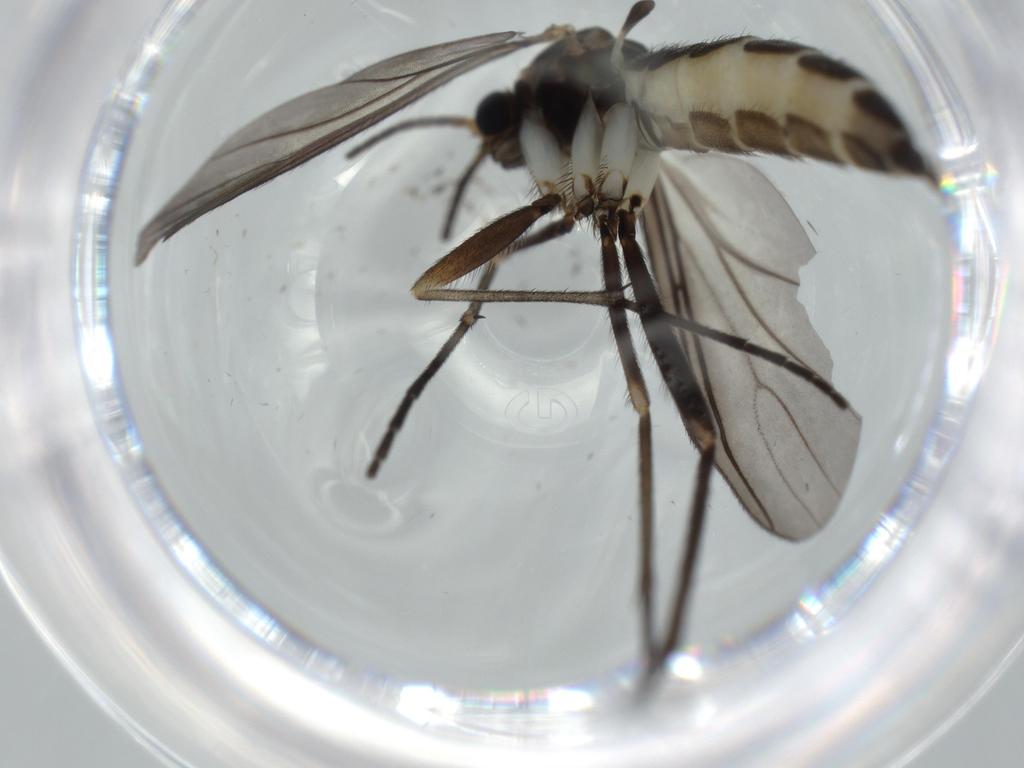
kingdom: Animalia
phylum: Arthropoda
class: Insecta
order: Diptera
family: Sciaridae
